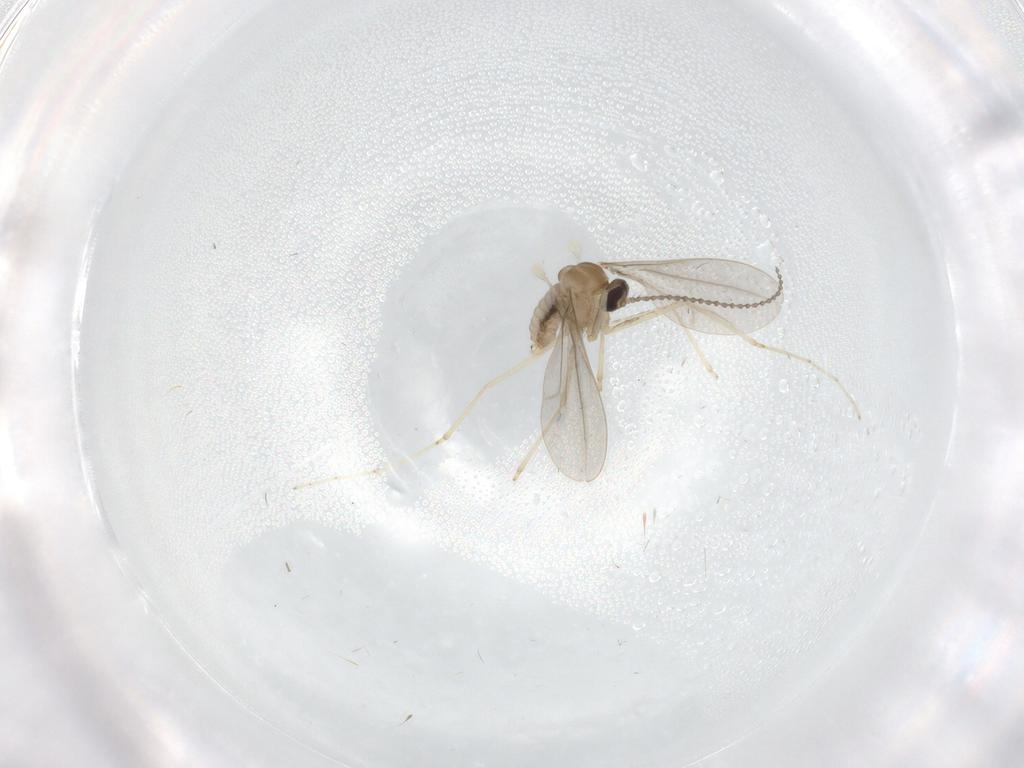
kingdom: Animalia
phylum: Arthropoda
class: Insecta
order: Diptera
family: Cecidomyiidae
